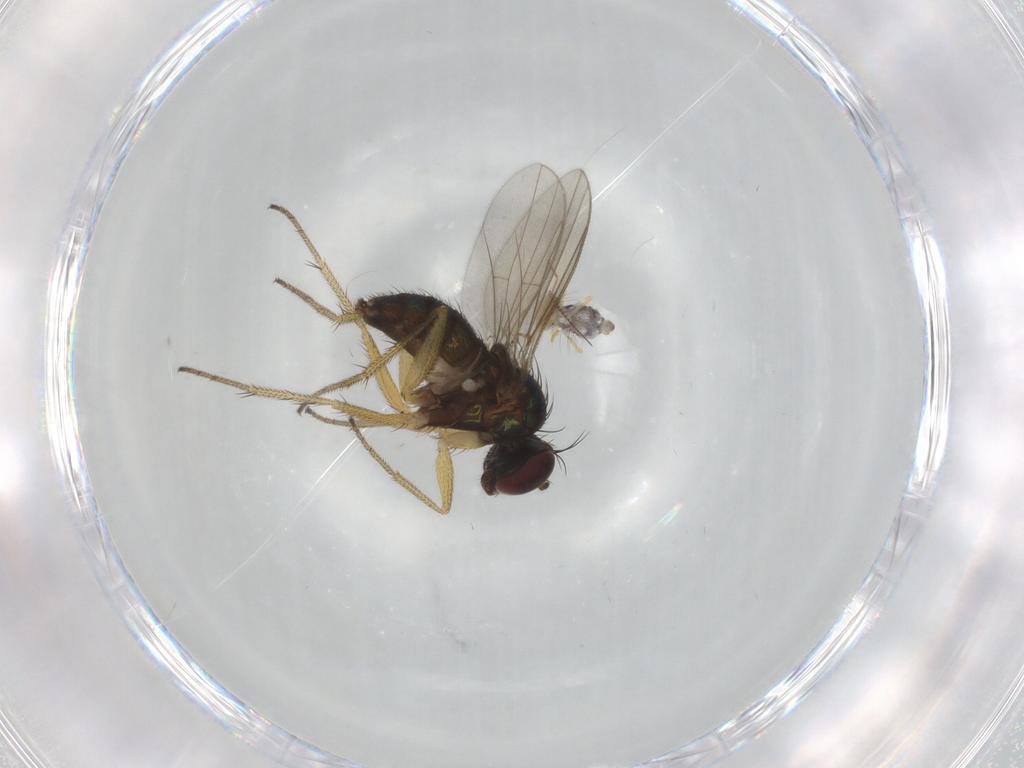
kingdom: Animalia
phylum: Arthropoda
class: Insecta
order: Diptera
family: Dolichopodidae
